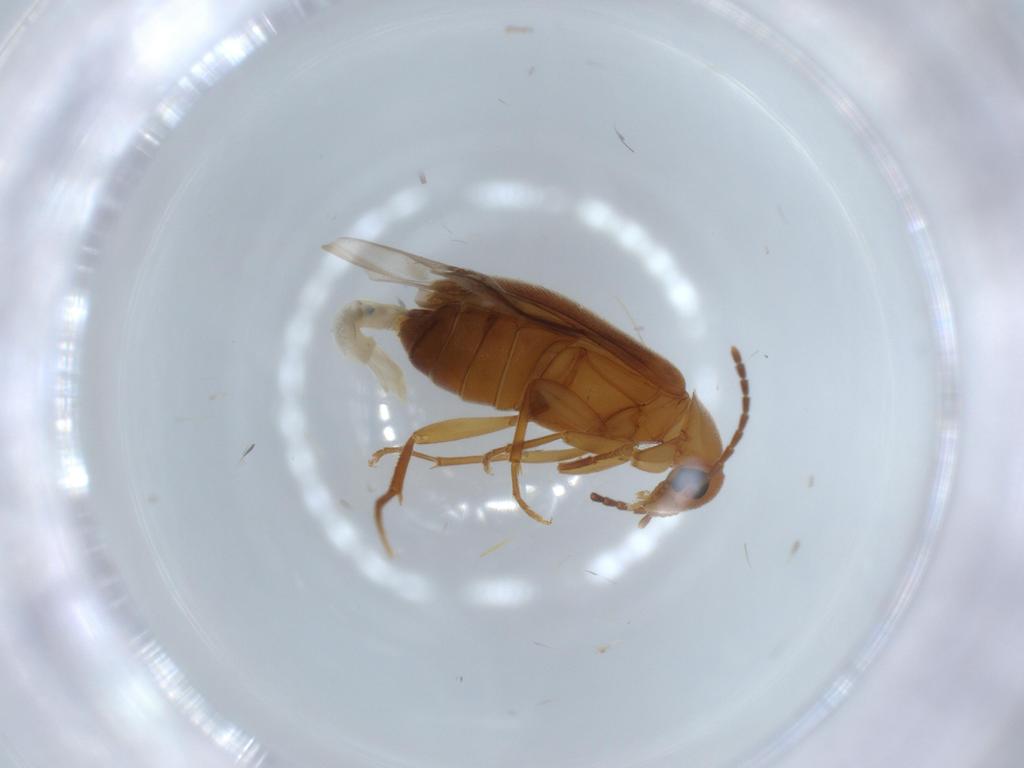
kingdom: Animalia
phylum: Arthropoda
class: Insecta
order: Coleoptera
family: Scraptiidae
